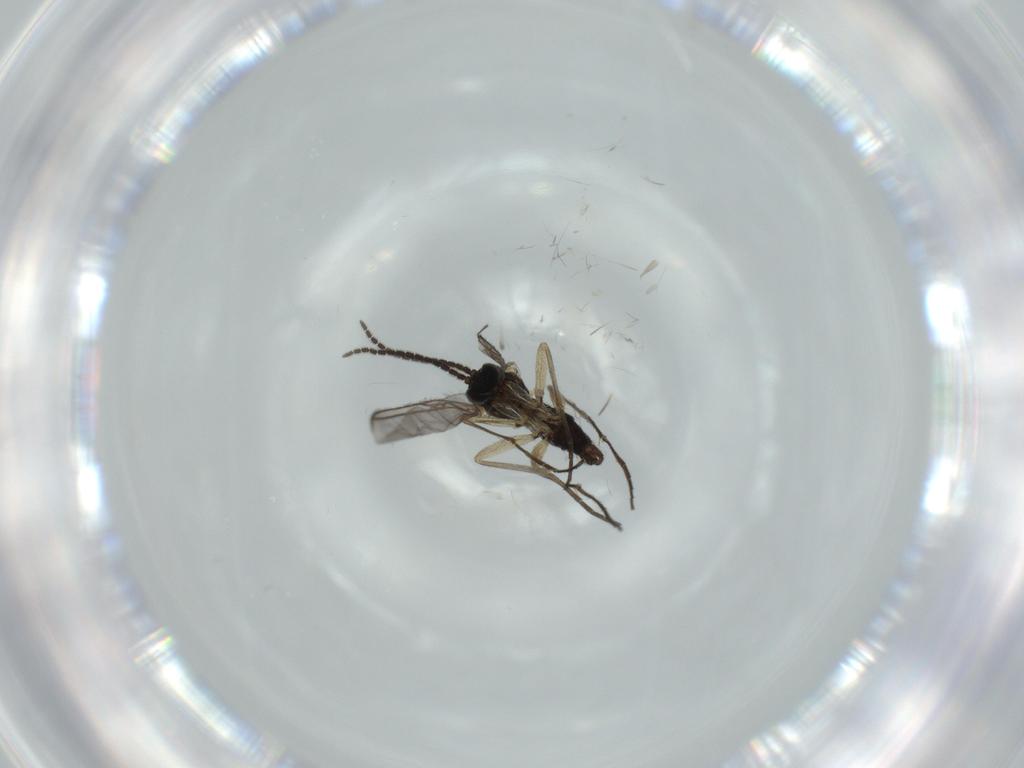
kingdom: Animalia
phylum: Arthropoda
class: Insecta
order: Diptera
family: Sciaridae
